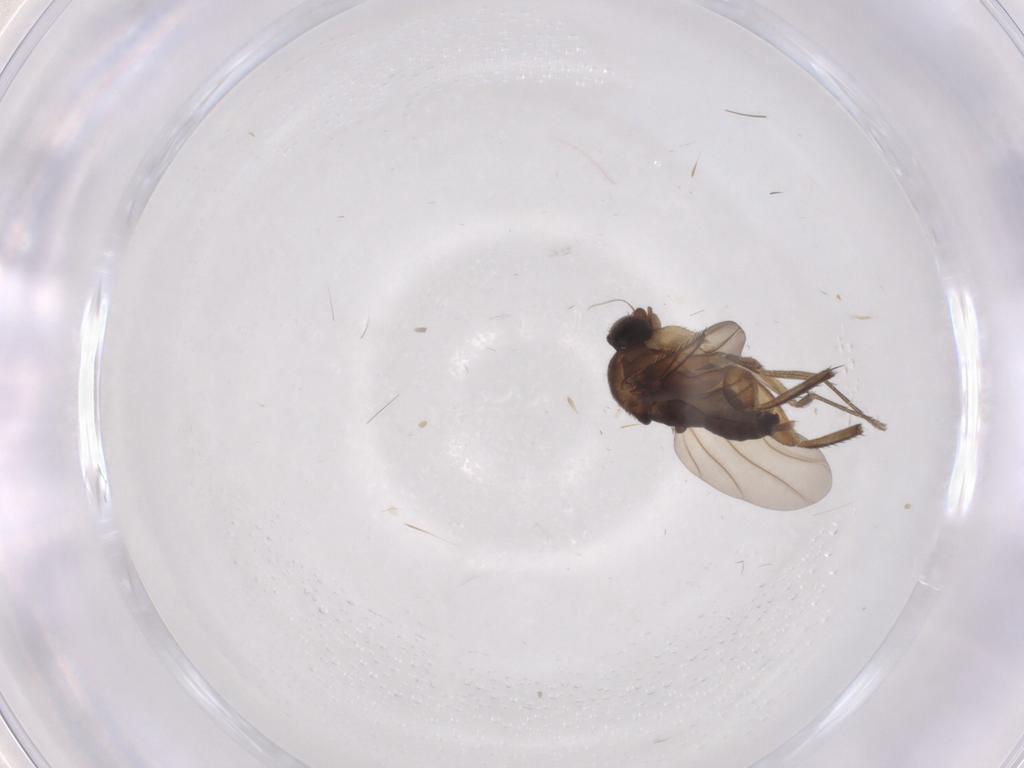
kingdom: Animalia
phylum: Arthropoda
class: Insecta
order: Diptera
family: Phoridae
